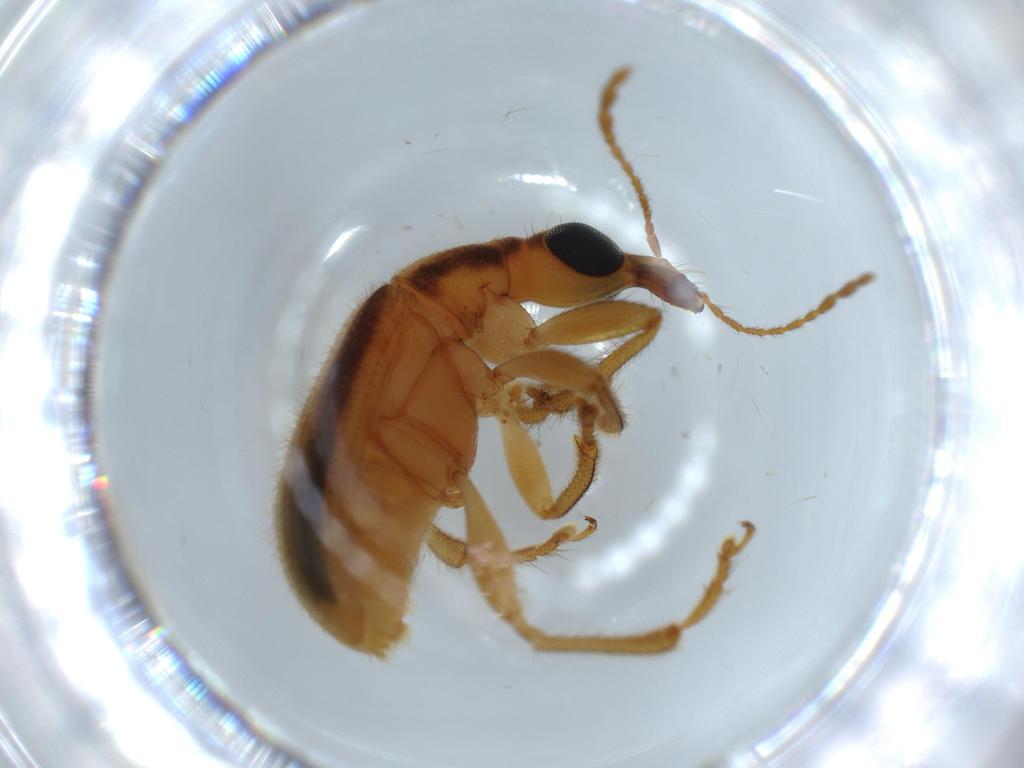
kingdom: Animalia
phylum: Arthropoda
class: Insecta
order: Coleoptera
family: Attelabidae
